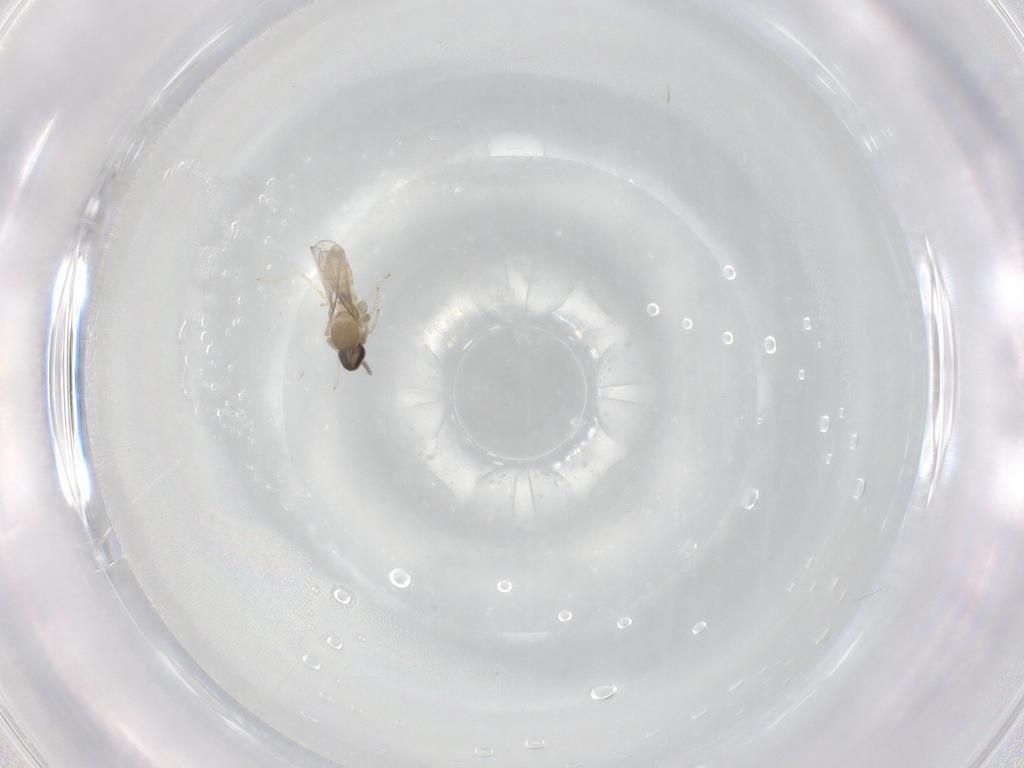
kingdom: Animalia
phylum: Arthropoda
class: Insecta
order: Diptera
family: Cecidomyiidae
